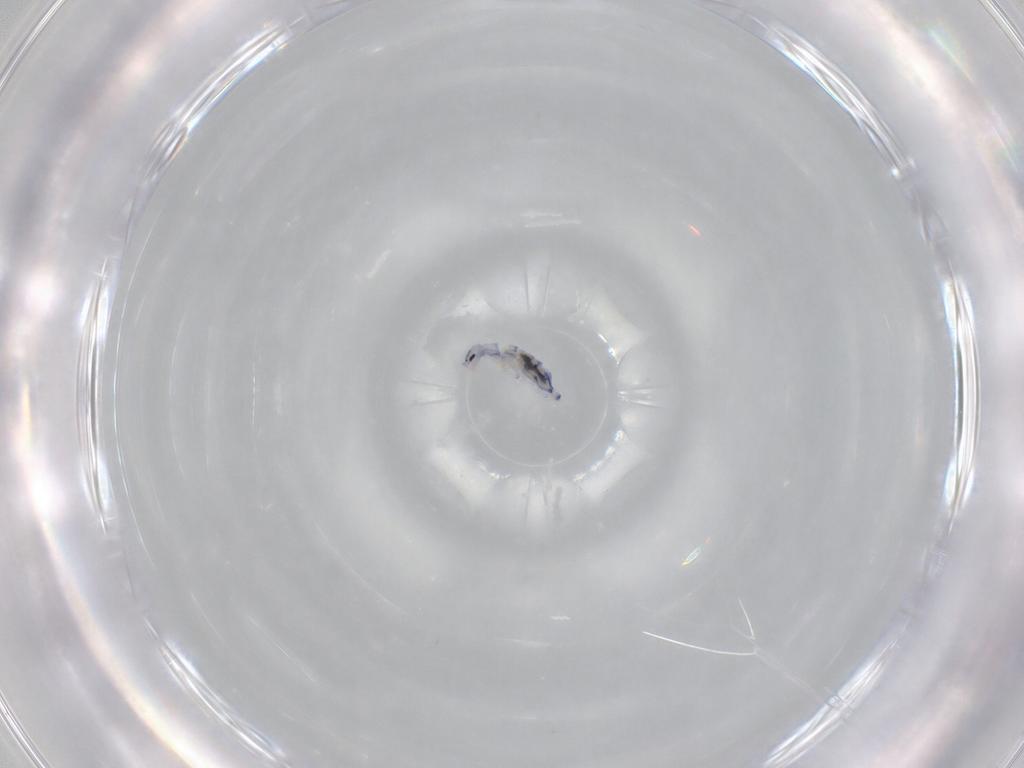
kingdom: Animalia
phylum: Arthropoda
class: Collembola
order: Entomobryomorpha
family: Entomobryidae
